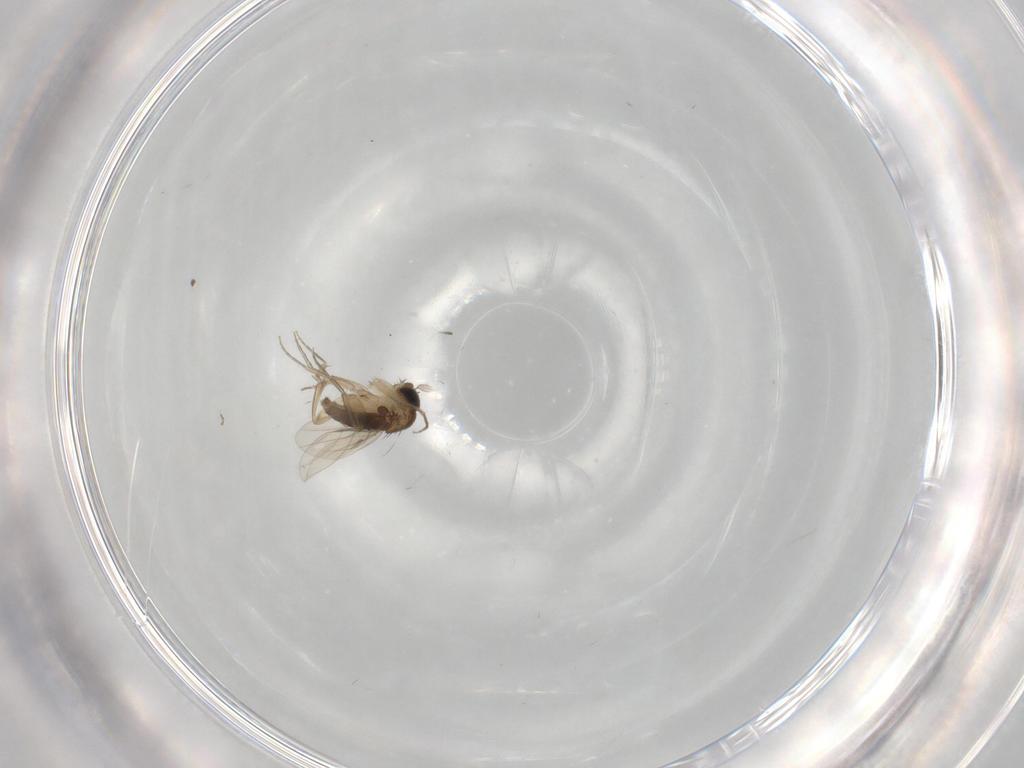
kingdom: Animalia
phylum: Arthropoda
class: Insecta
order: Diptera
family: Phoridae
